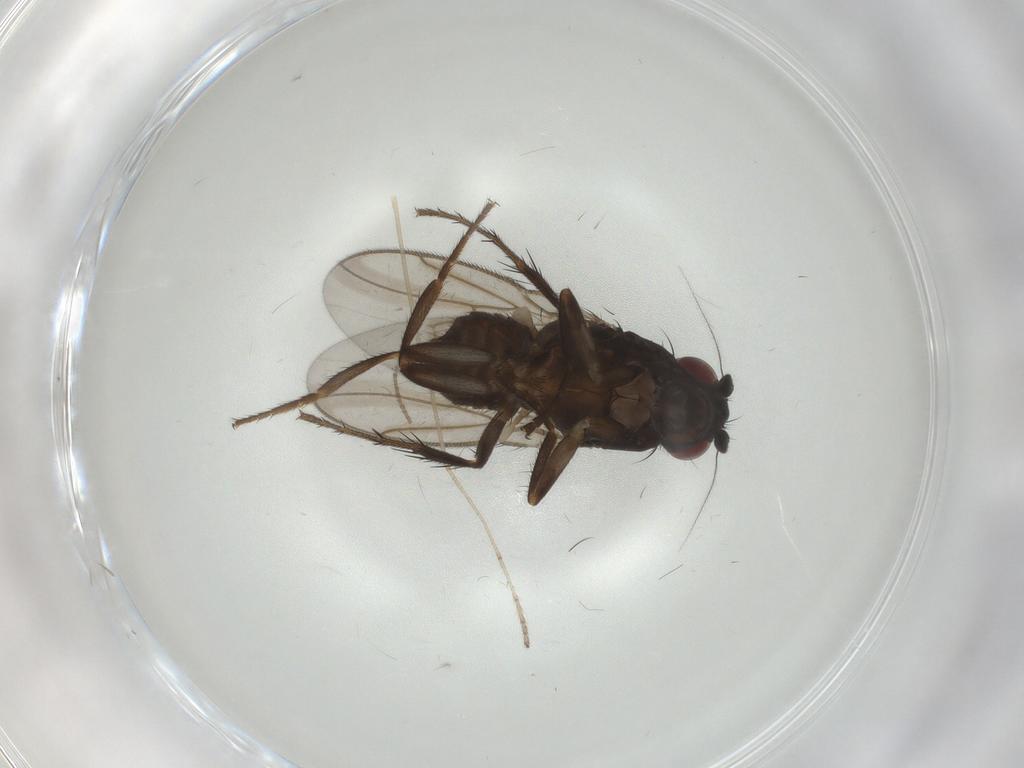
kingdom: Animalia
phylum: Arthropoda
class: Insecta
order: Diptera
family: Sphaeroceridae
